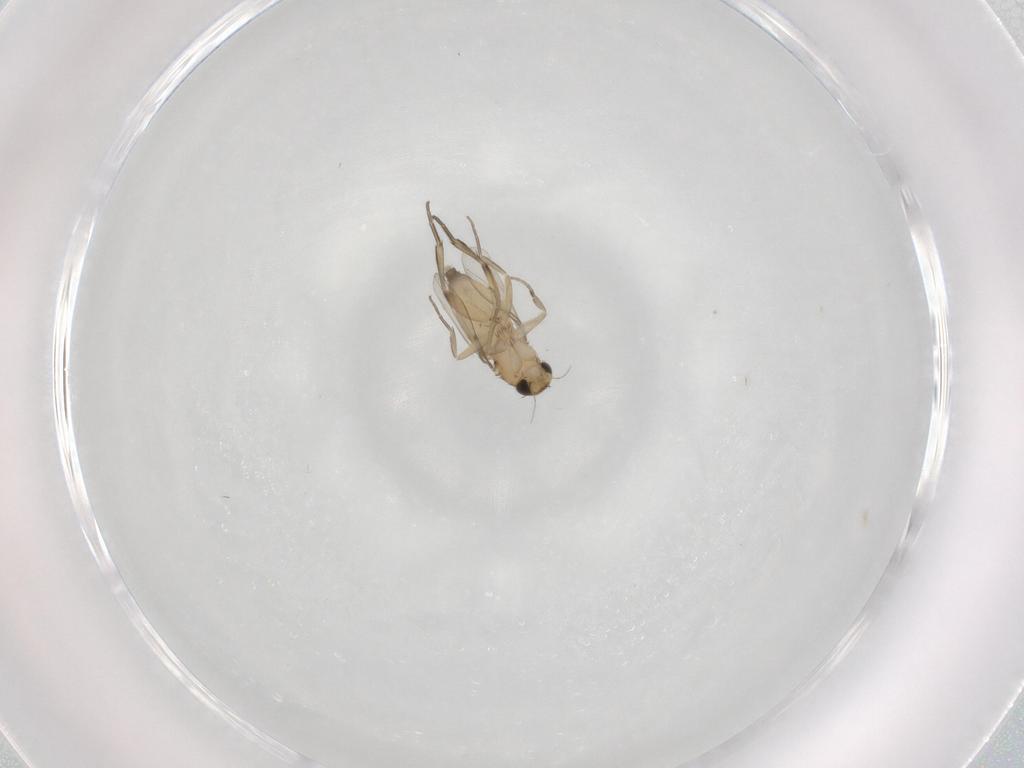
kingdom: Animalia
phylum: Arthropoda
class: Insecta
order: Diptera
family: Phoridae
